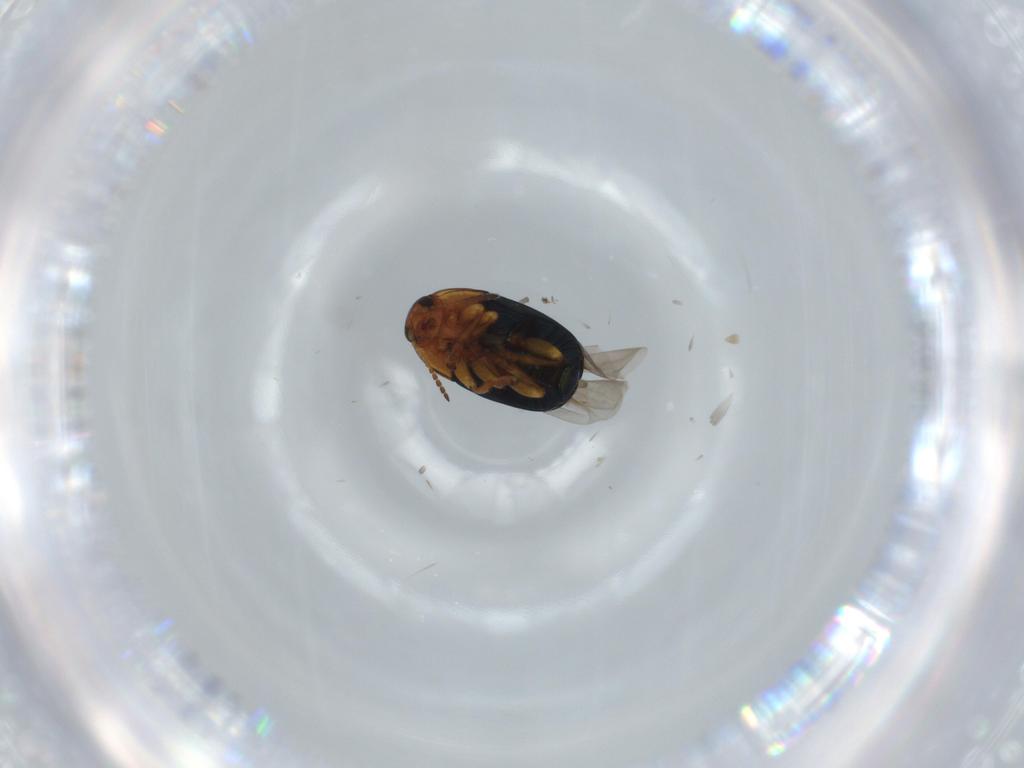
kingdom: Animalia
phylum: Arthropoda
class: Insecta
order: Coleoptera
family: Chrysomelidae
